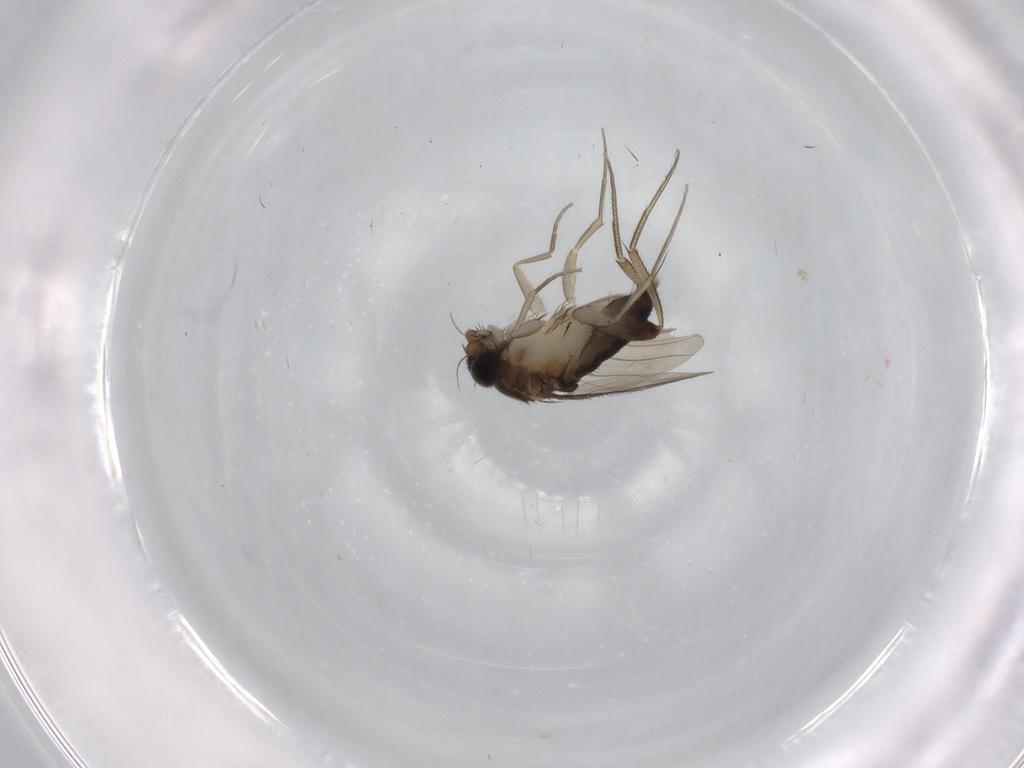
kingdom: Animalia
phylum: Arthropoda
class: Insecta
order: Diptera
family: Phoridae
